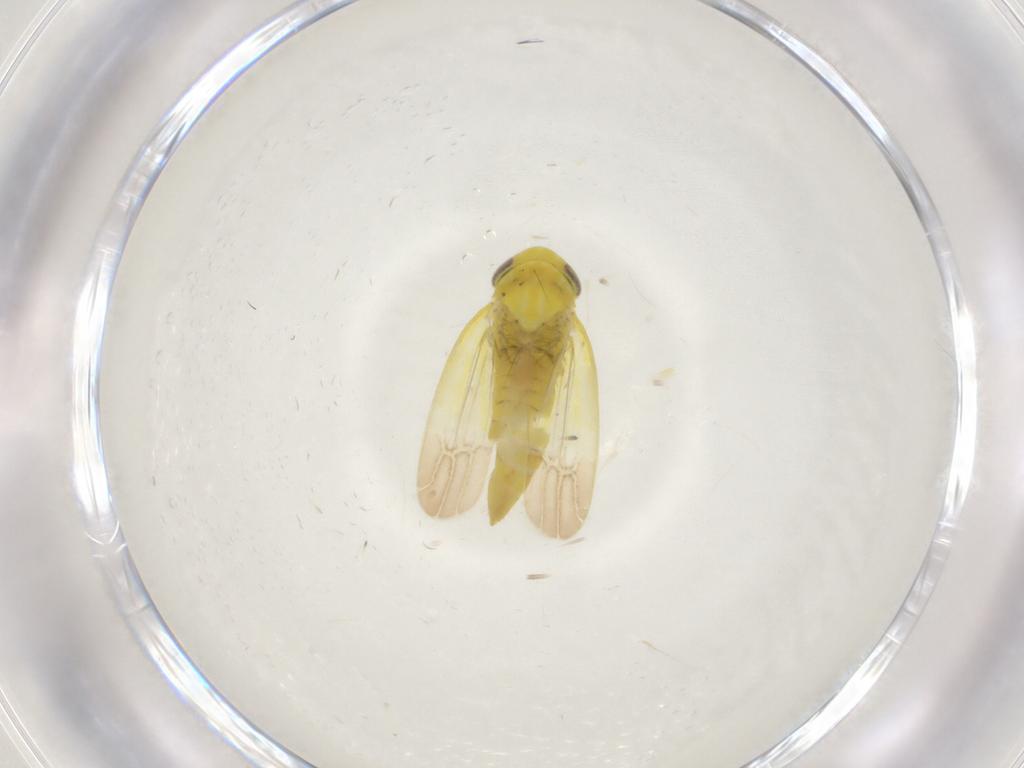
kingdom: Animalia
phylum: Arthropoda
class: Insecta
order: Hemiptera
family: Cicadellidae
